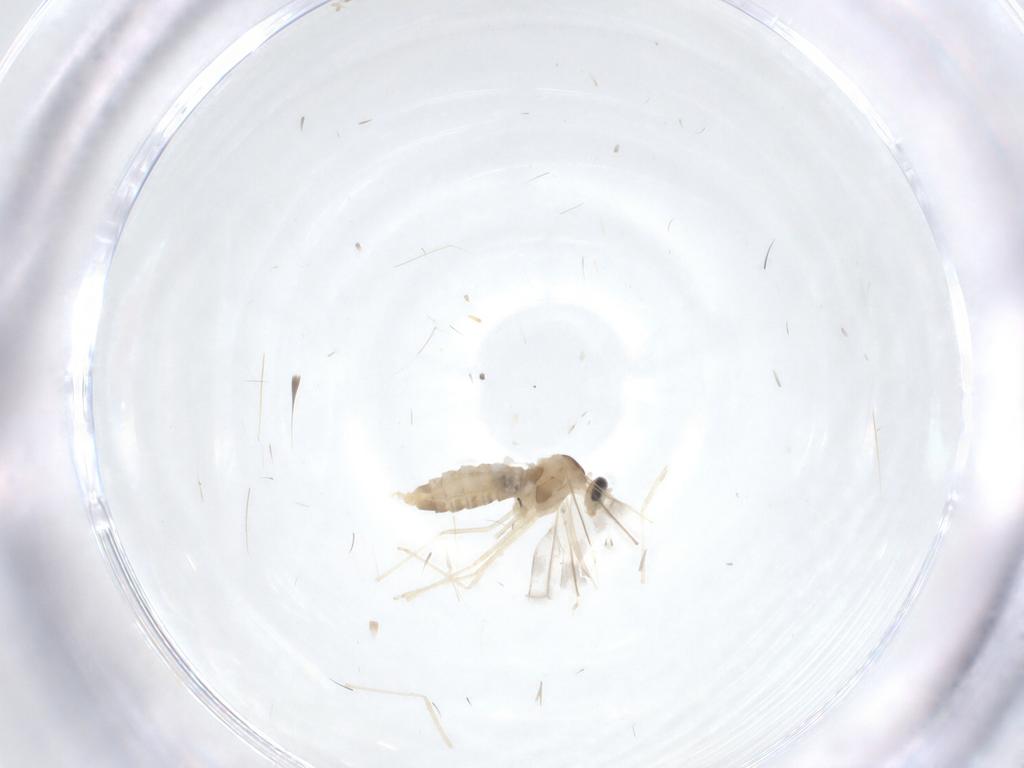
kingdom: Animalia
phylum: Arthropoda
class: Insecta
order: Diptera
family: Cecidomyiidae
